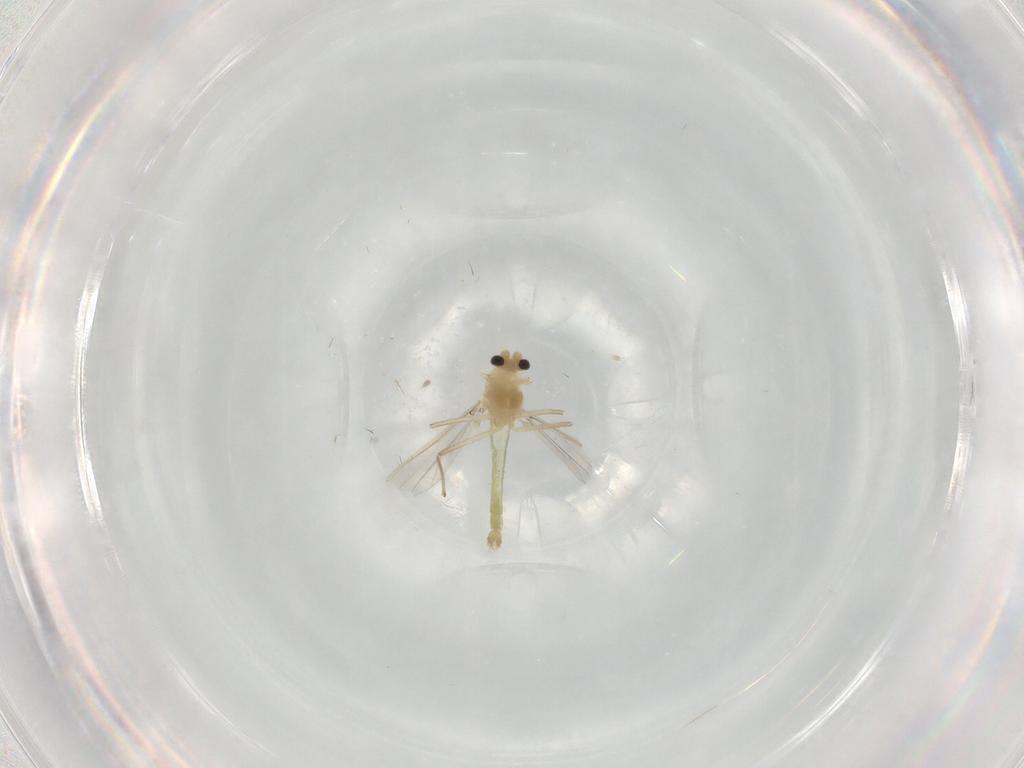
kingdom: Animalia
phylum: Arthropoda
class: Insecta
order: Diptera
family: Chironomidae
